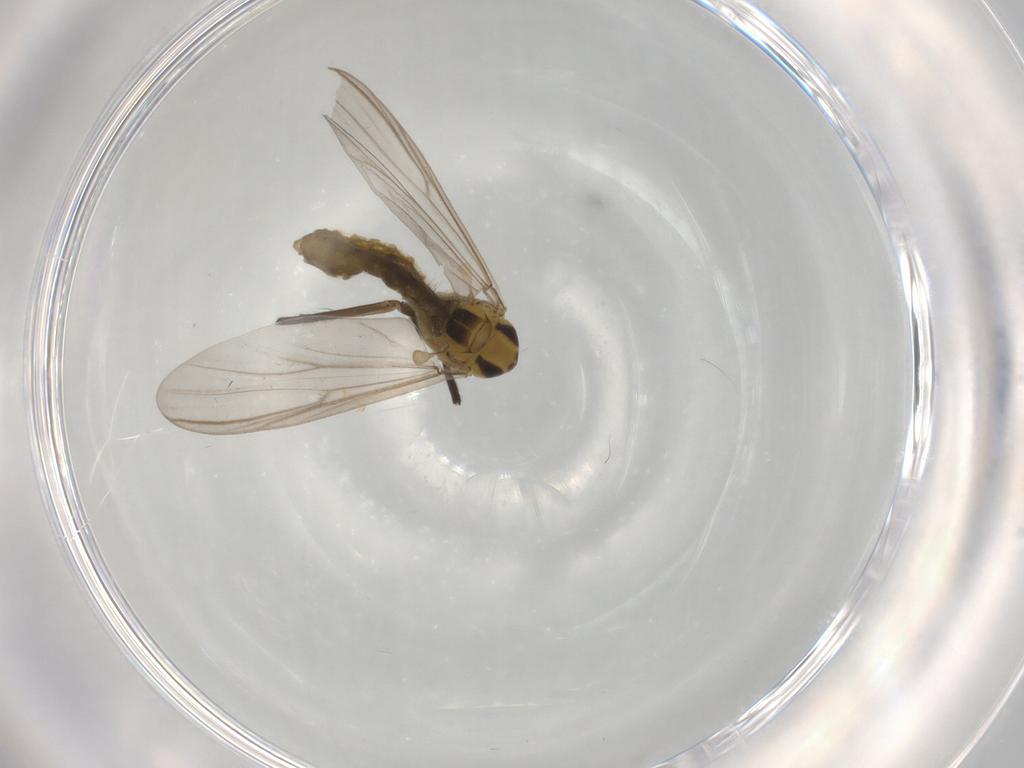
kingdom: Animalia
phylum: Arthropoda
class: Insecta
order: Diptera
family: Chironomidae
